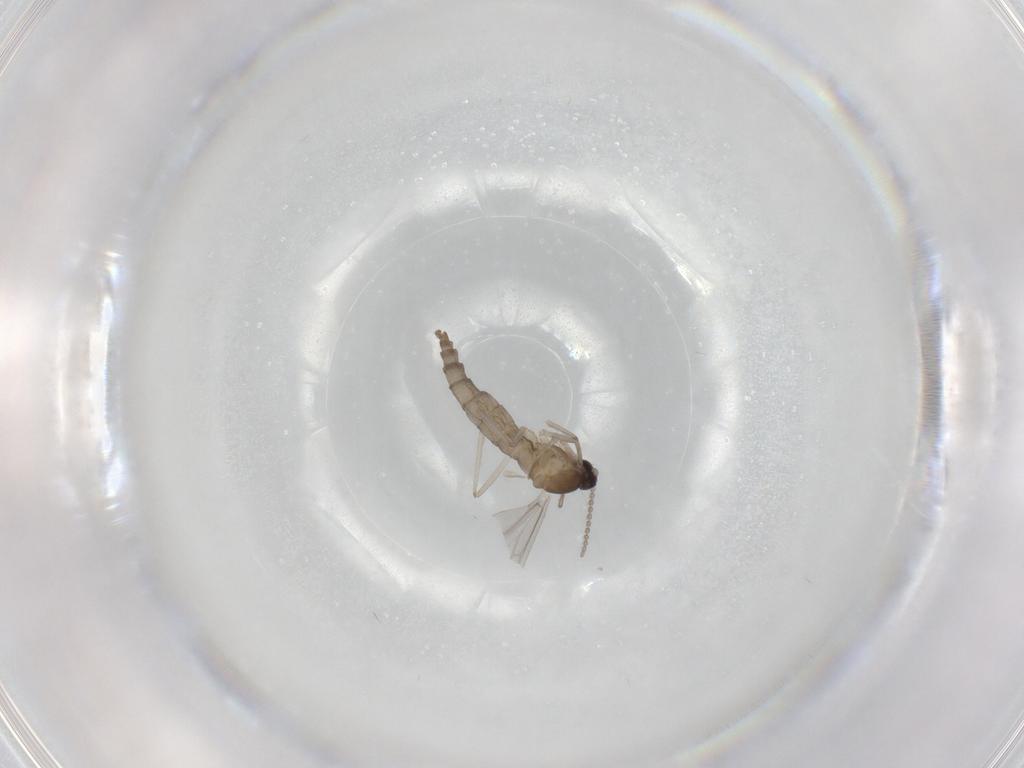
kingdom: Animalia
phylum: Arthropoda
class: Insecta
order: Diptera
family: Cecidomyiidae
